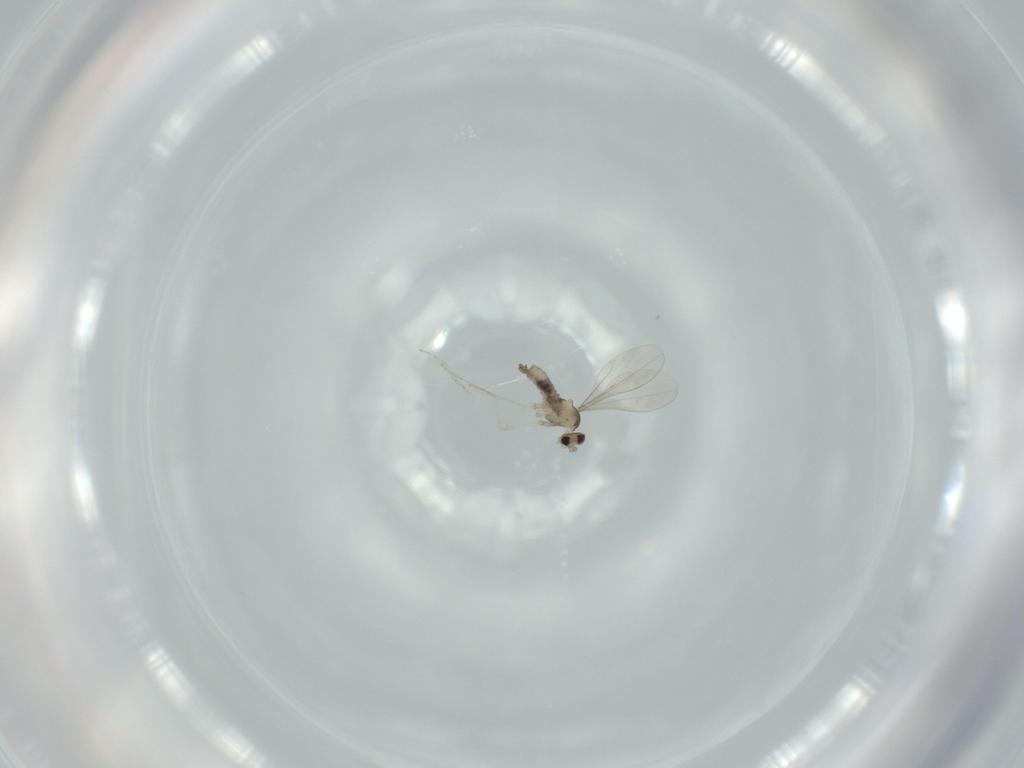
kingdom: Animalia
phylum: Arthropoda
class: Insecta
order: Diptera
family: Cecidomyiidae
